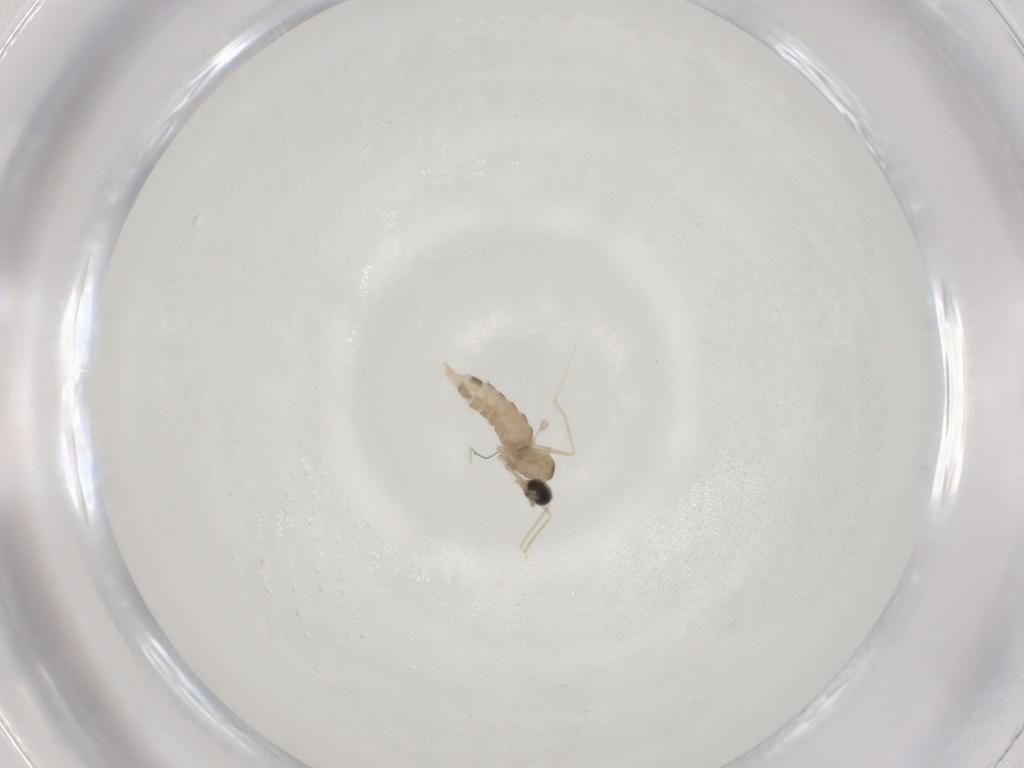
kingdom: Animalia
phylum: Arthropoda
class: Insecta
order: Diptera
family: Cecidomyiidae
